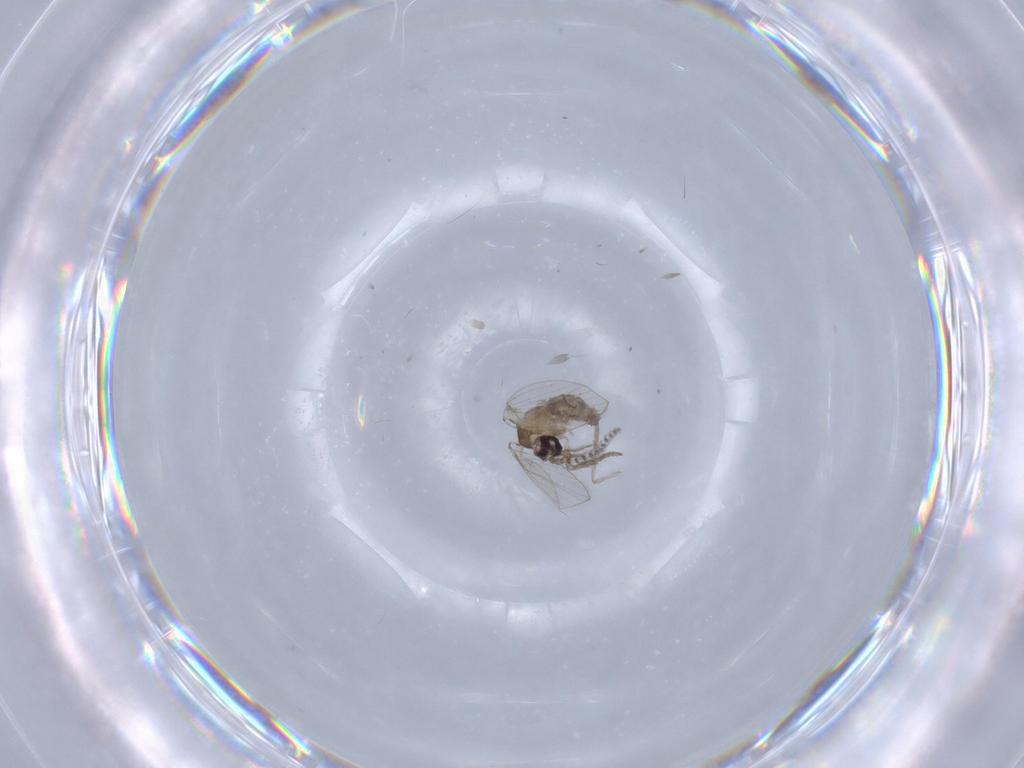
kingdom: Animalia
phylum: Arthropoda
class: Insecta
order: Diptera
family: Psychodidae
